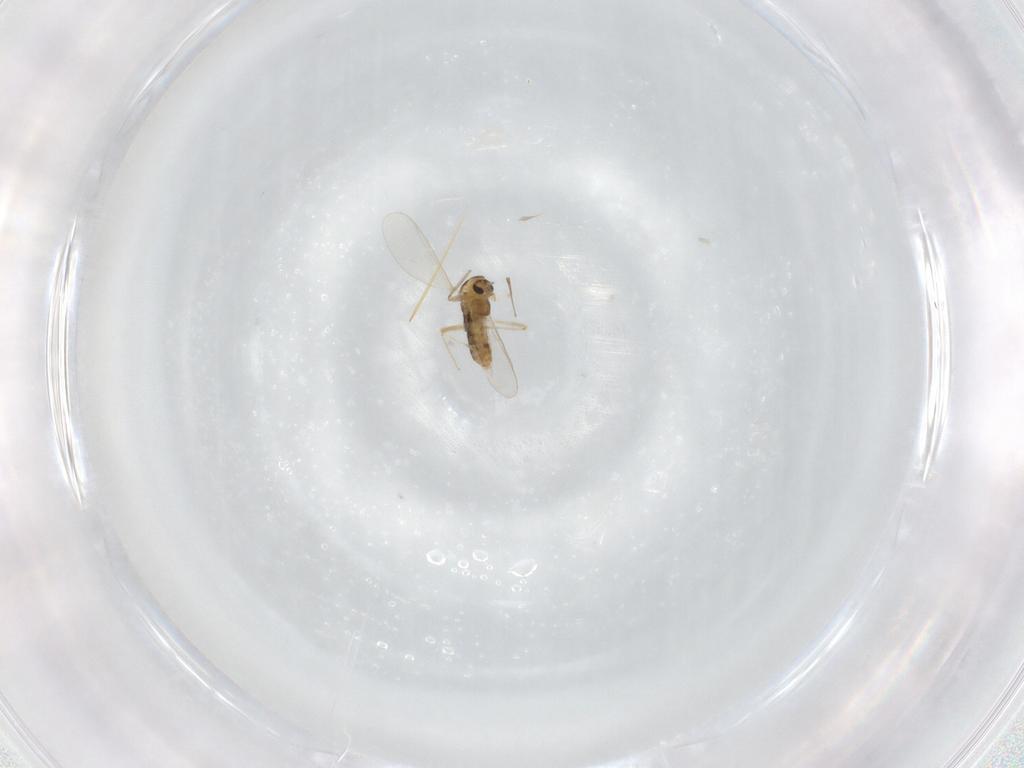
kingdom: Animalia
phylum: Arthropoda
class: Insecta
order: Diptera
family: Chironomidae
